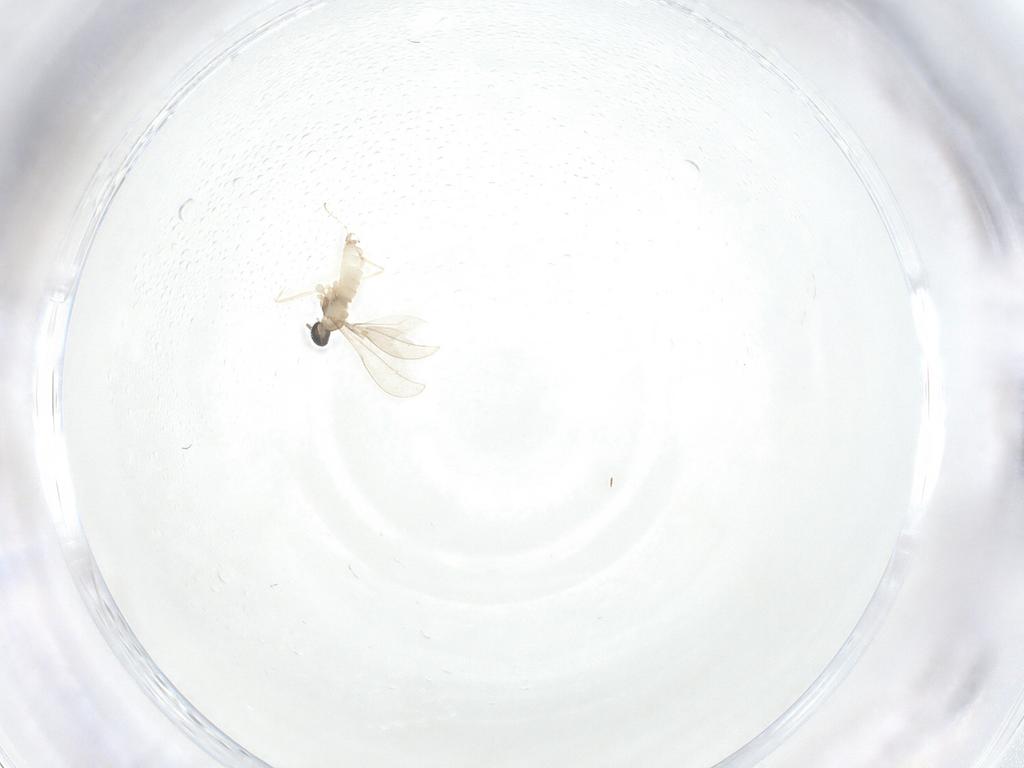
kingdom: Animalia
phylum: Arthropoda
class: Insecta
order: Diptera
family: Cecidomyiidae
